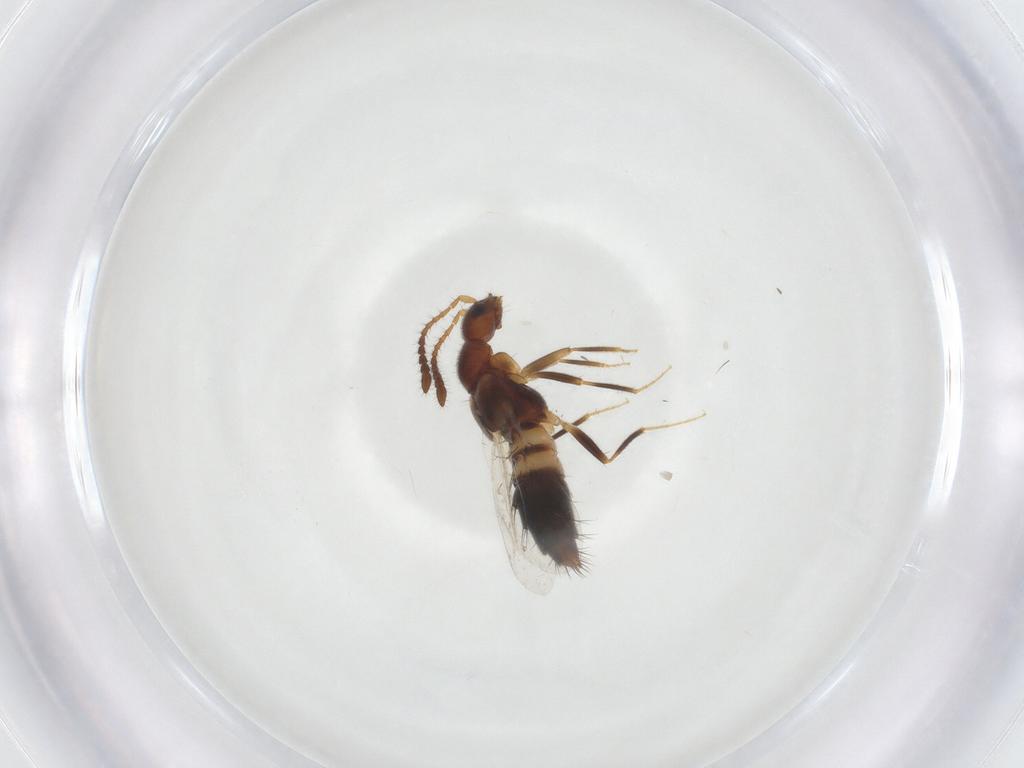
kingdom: Animalia
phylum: Arthropoda
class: Insecta
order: Coleoptera
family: Staphylinidae
